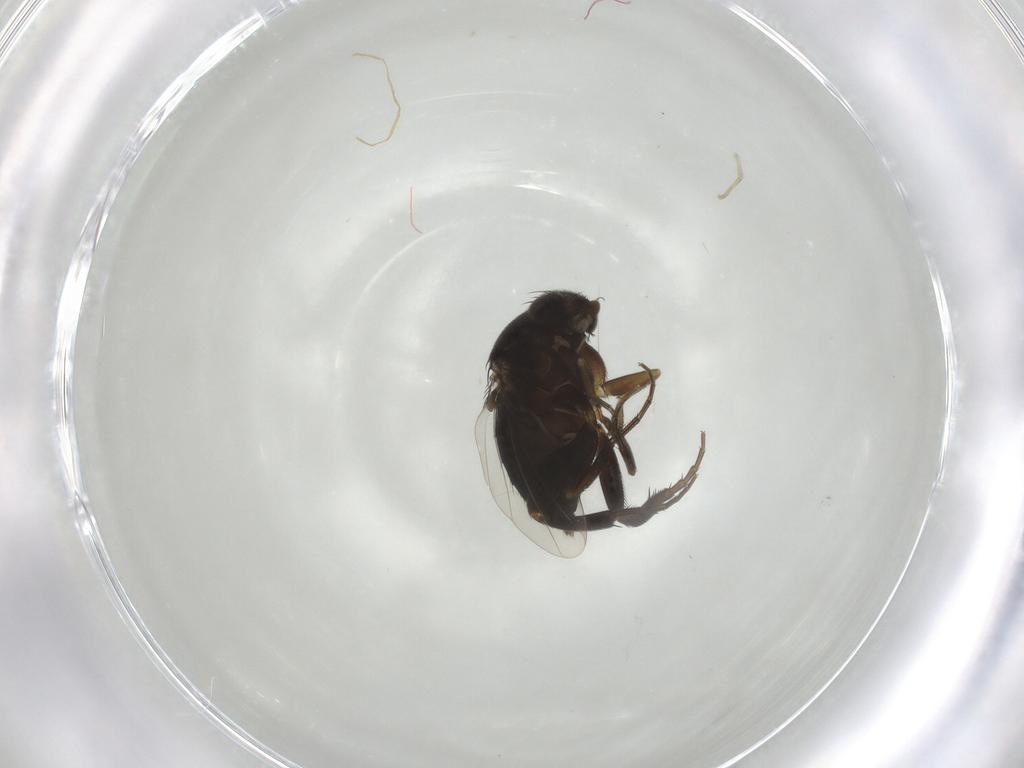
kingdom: Animalia
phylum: Arthropoda
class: Insecta
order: Diptera
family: Phoridae
